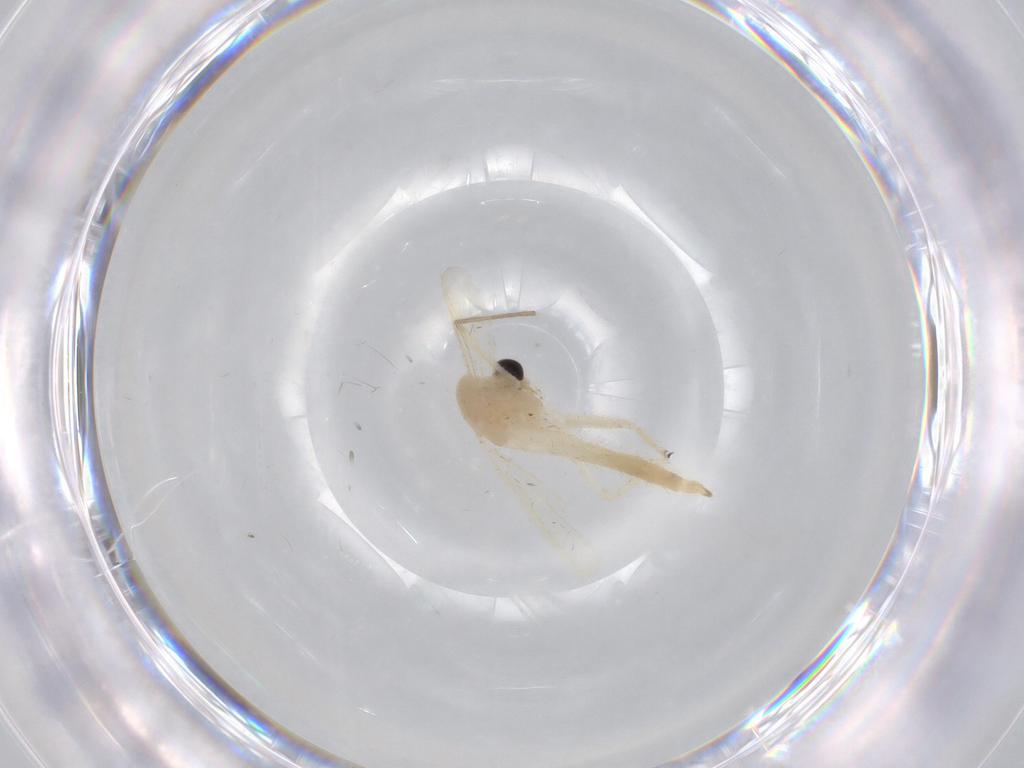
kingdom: Animalia
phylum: Arthropoda
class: Insecta
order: Diptera
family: Chironomidae
